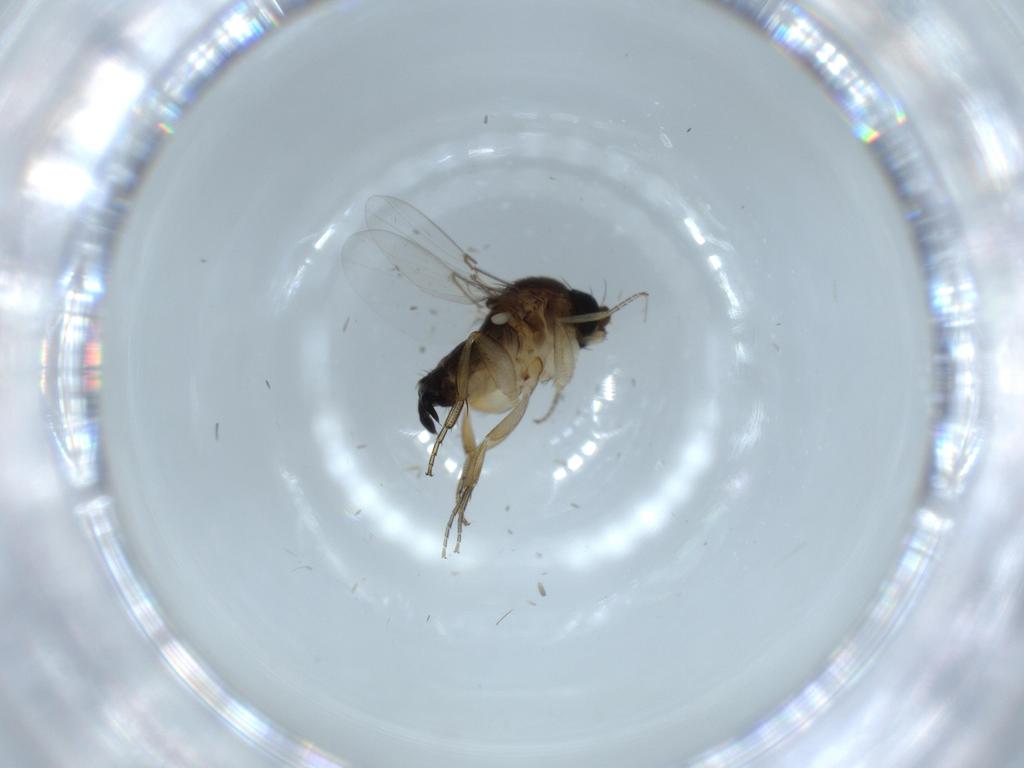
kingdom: Animalia
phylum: Arthropoda
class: Insecta
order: Diptera
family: Phoridae
